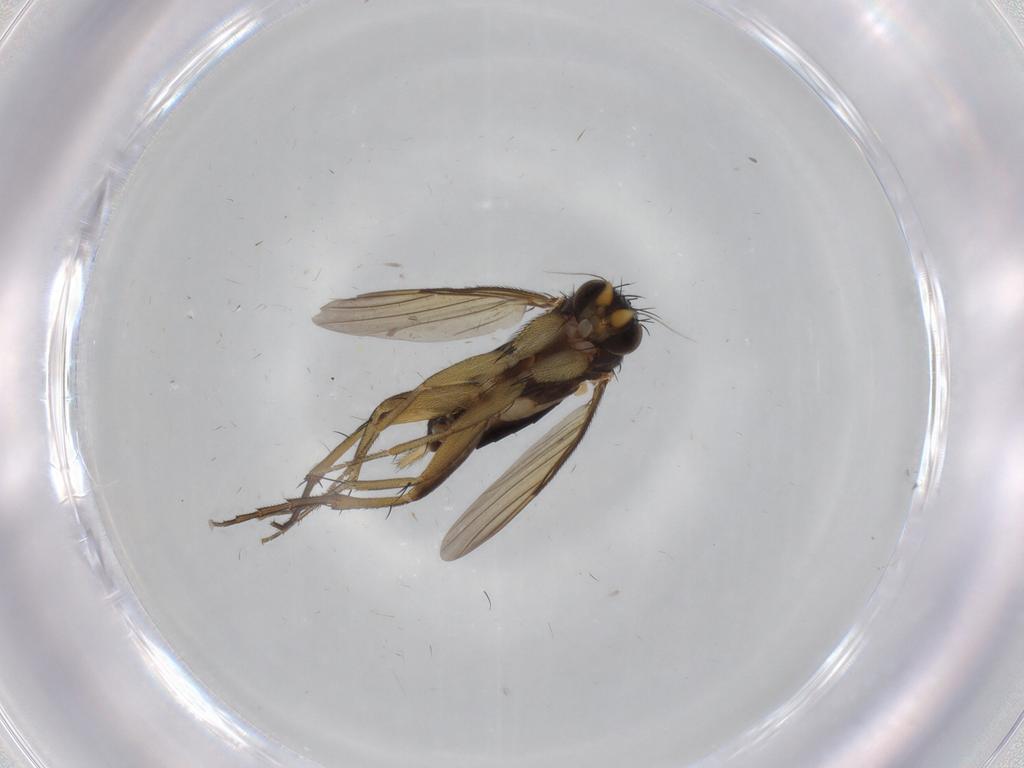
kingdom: Animalia
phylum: Arthropoda
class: Insecta
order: Diptera
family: Phoridae
